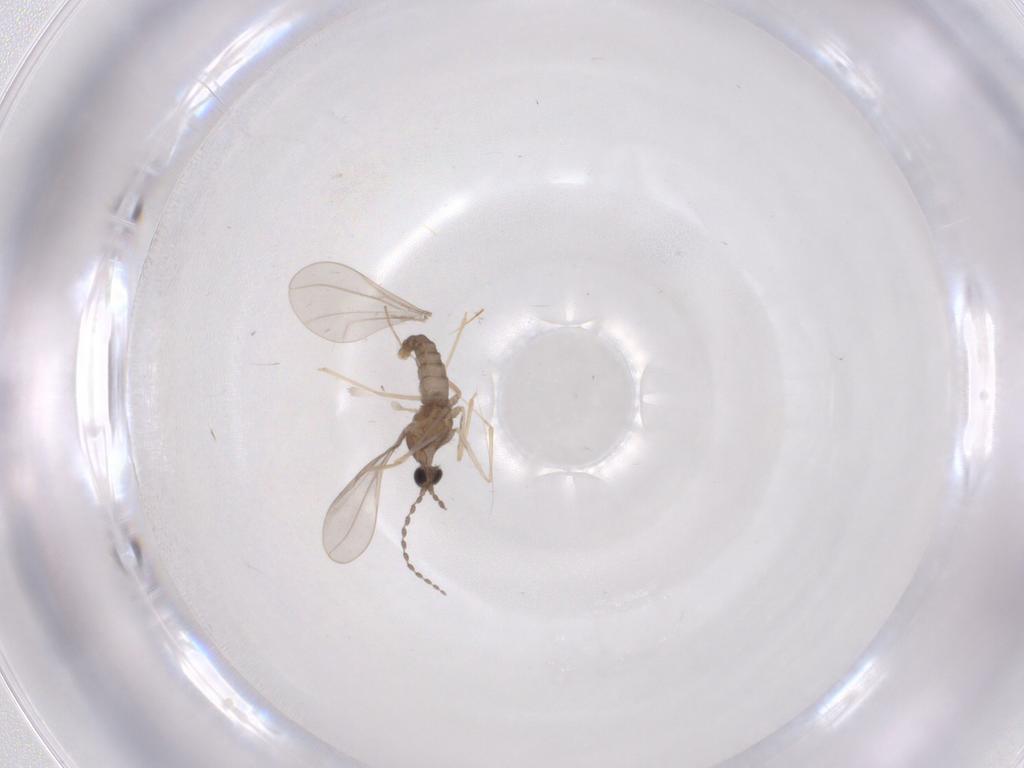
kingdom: Animalia
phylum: Arthropoda
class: Insecta
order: Diptera
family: Cecidomyiidae
